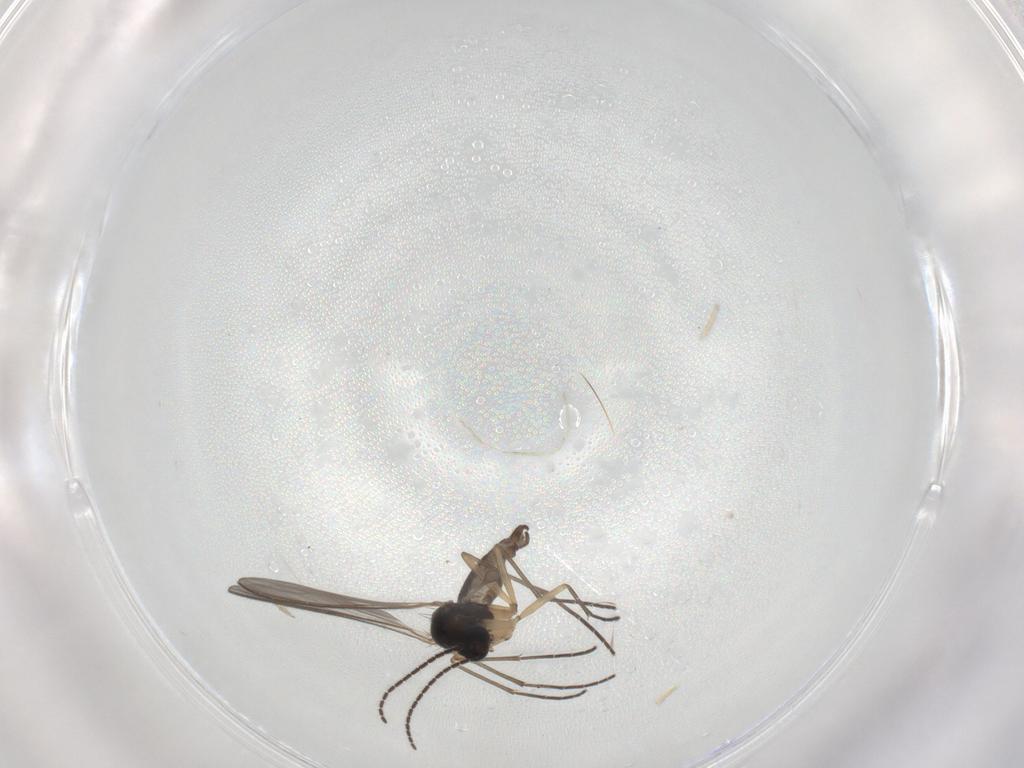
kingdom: Animalia
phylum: Arthropoda
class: Insecta
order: Diptera
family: Sciaridae
